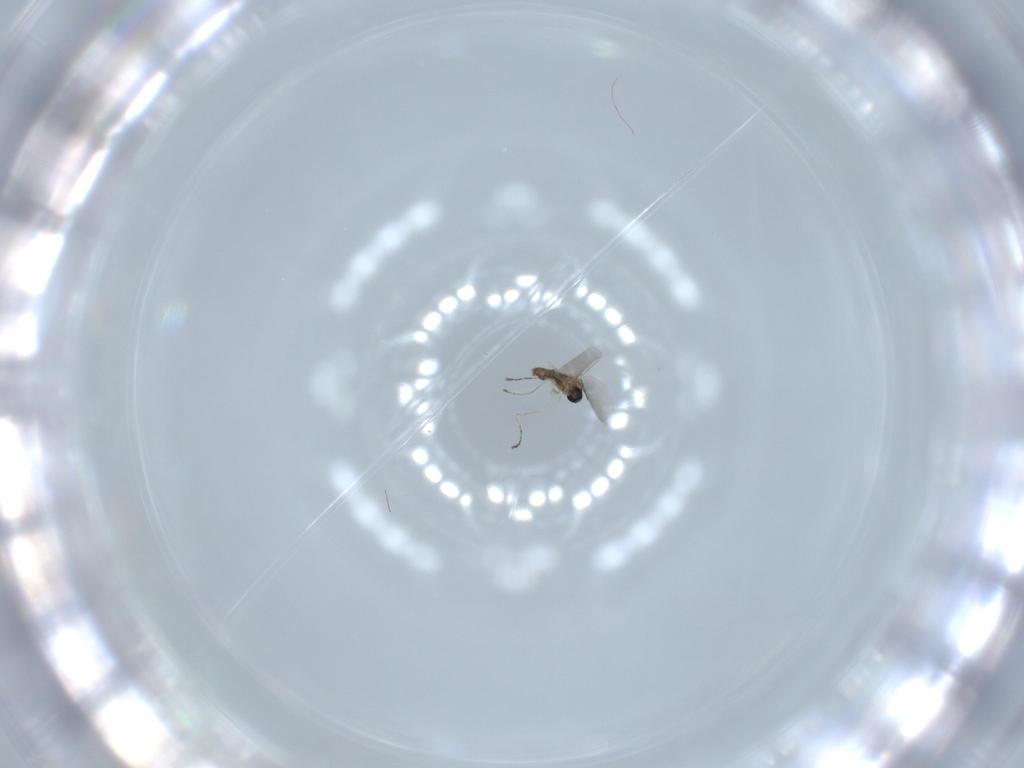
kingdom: Animalia
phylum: Arthropoda
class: Insecta
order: Diptera
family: Cecidomyiidae
